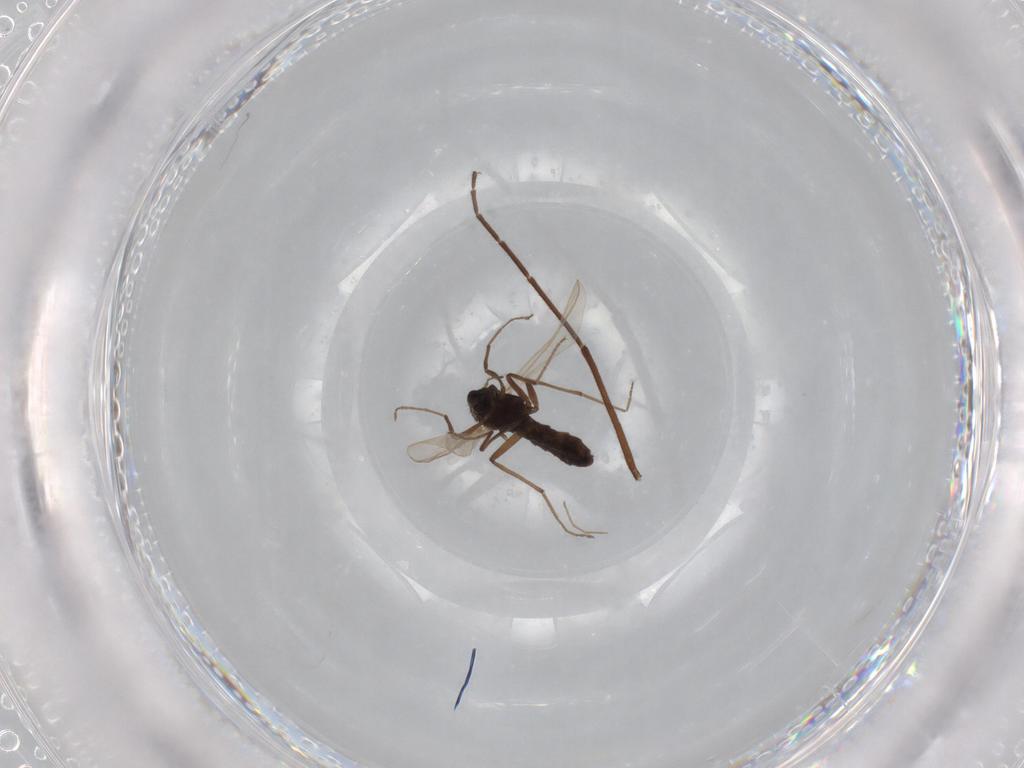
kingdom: Animalia
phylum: Arthropoda
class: Insecta
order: Diptera
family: Chironomidae
